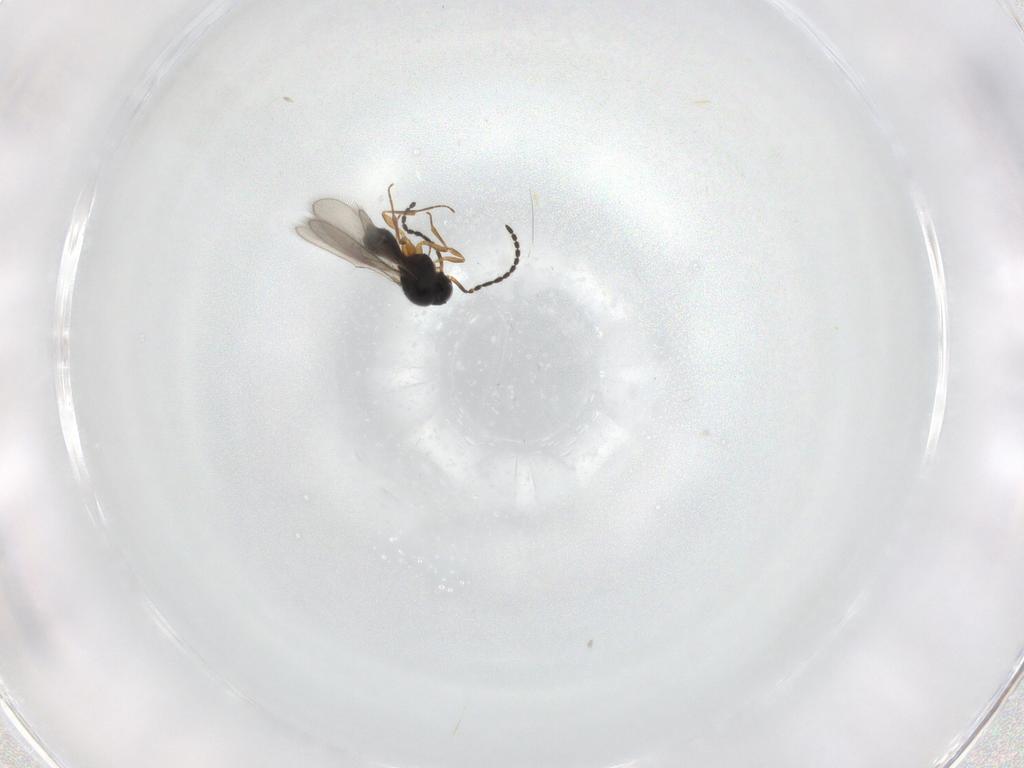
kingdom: Animalia
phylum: Arthropoda
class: Insecta
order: Hymenoptera
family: Scelionidae
